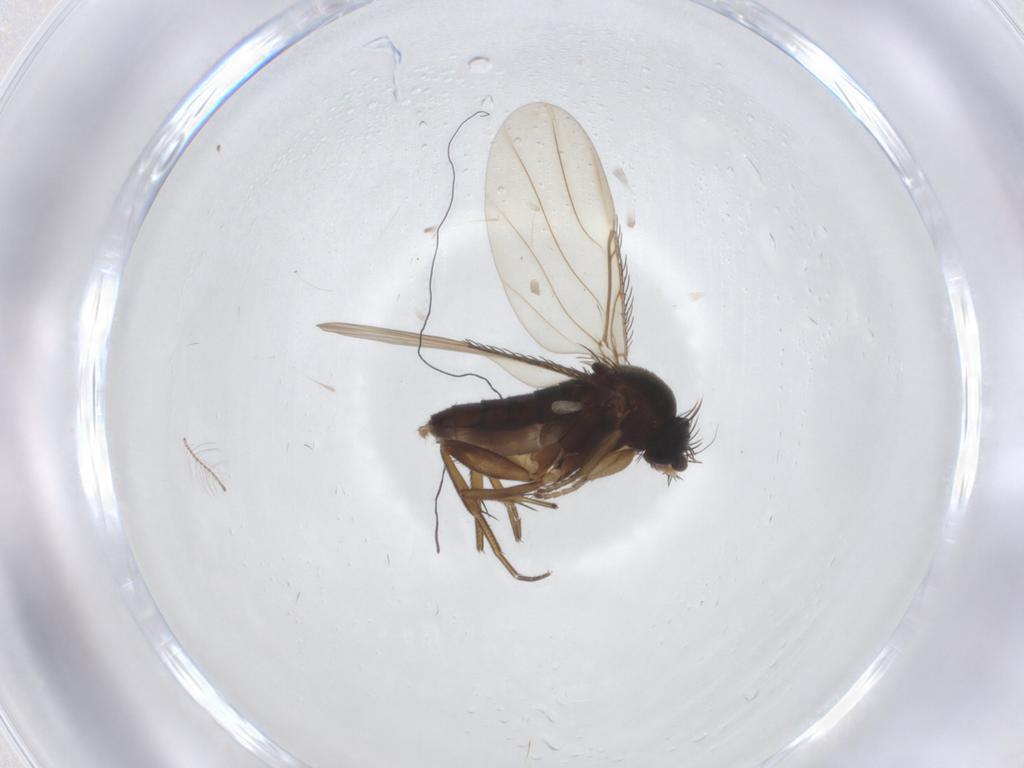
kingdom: Animalia
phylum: Arthropoda
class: Insecta
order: Diptera
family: Phoridae
